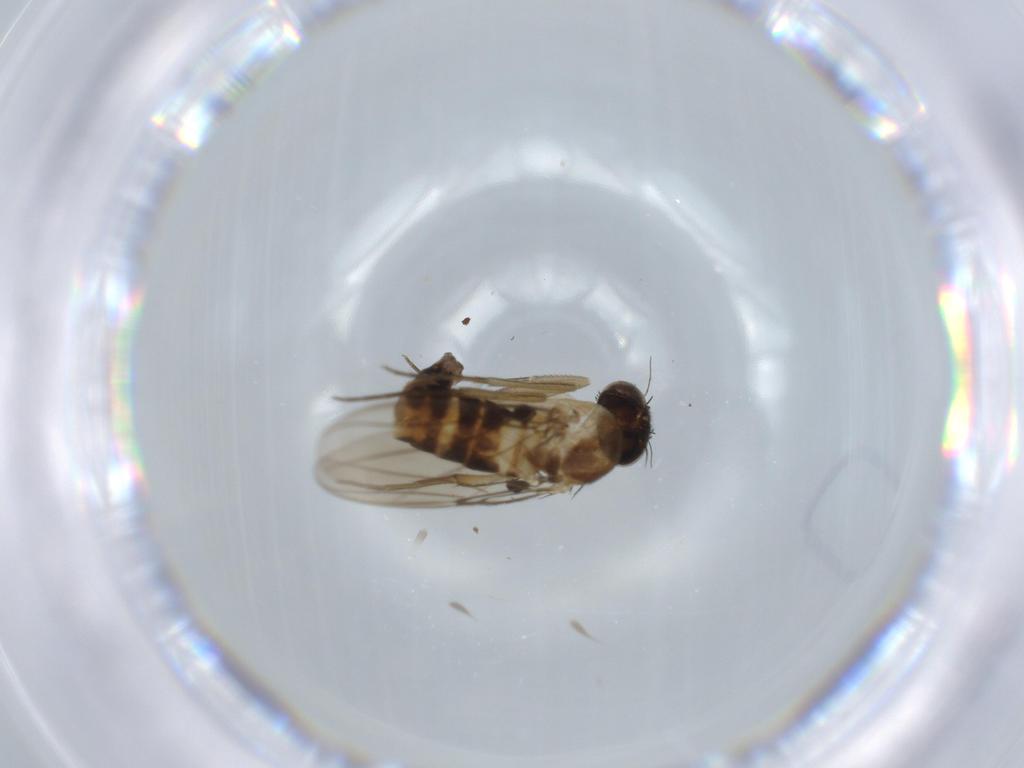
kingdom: Animalia
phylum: Arthropoda
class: Insecta
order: Diptera
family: Phoridae
